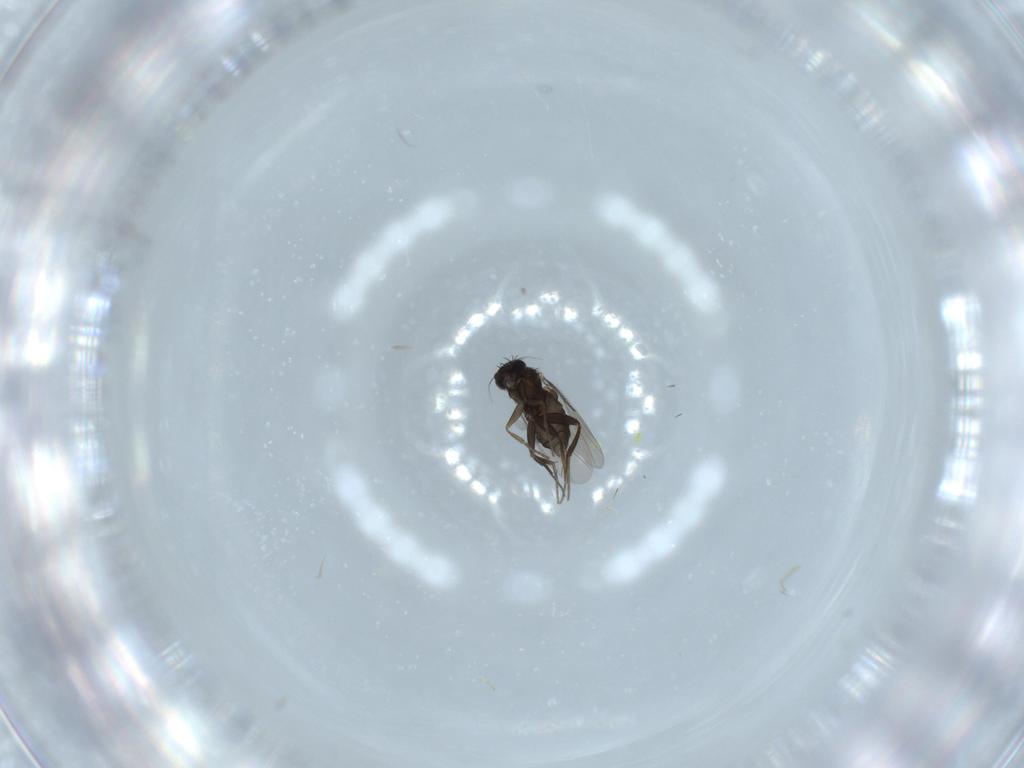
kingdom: Animalia
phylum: Arthropoda
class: Insecta
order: Diptera
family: Phoridae
